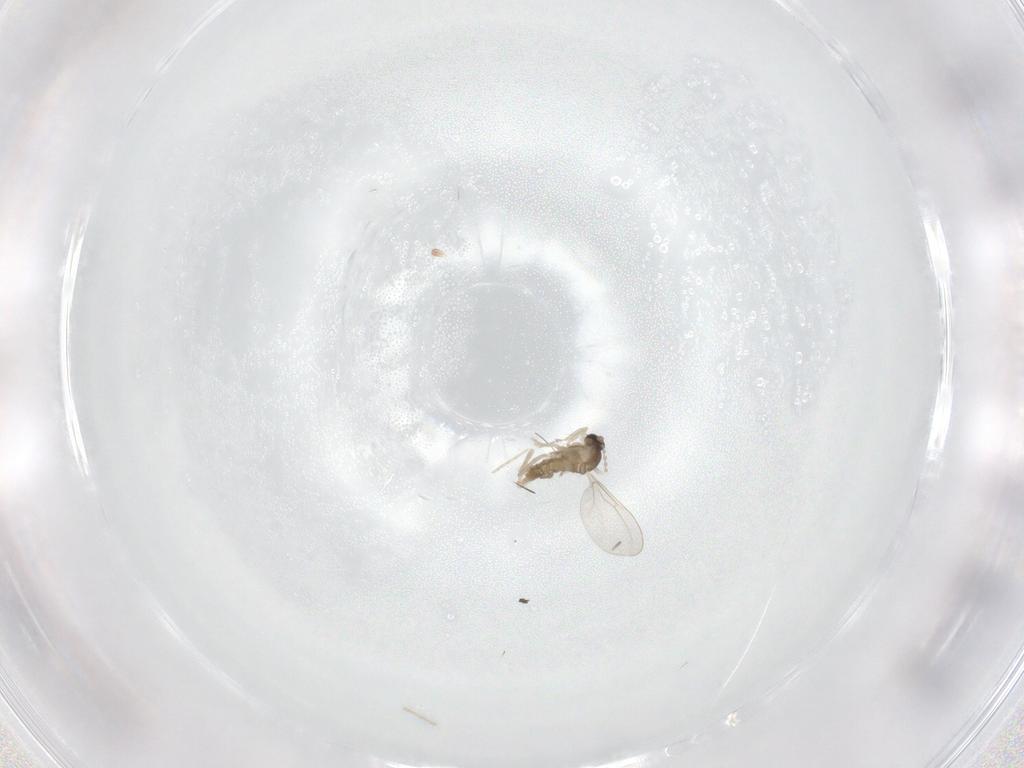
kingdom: Animalia
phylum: Arthropoda
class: Insecta
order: Diptera
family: Cecidomyiidae
